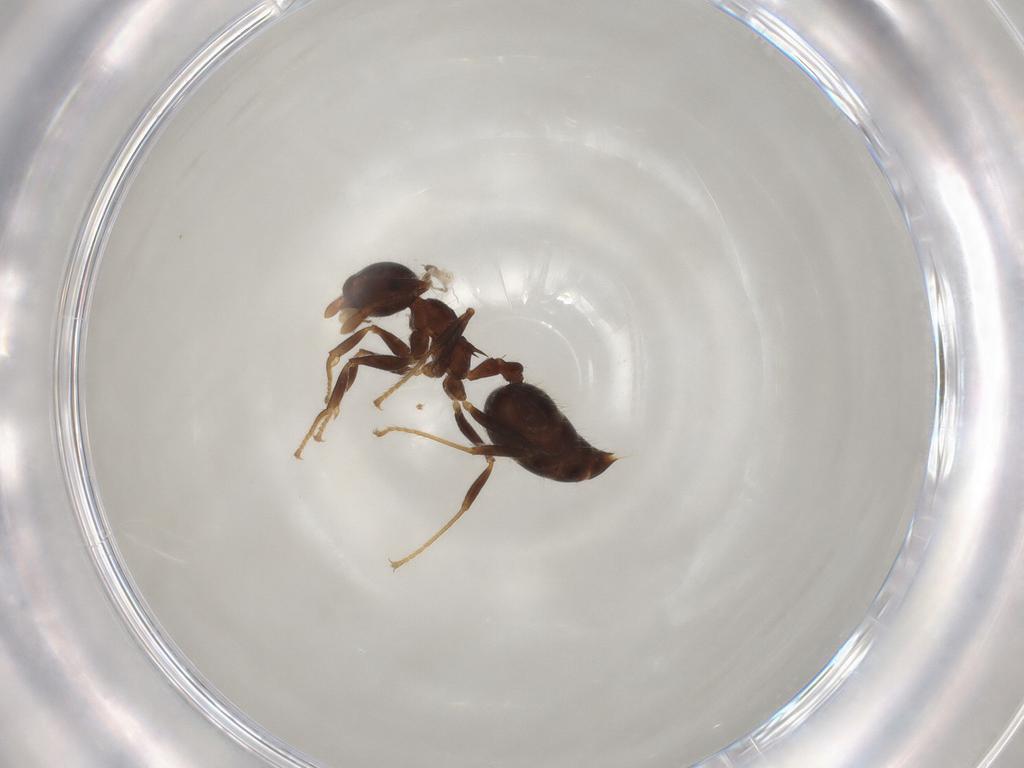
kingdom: Animalia
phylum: Arthropoda
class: Insecta
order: Hymenoptera
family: Formicidae
